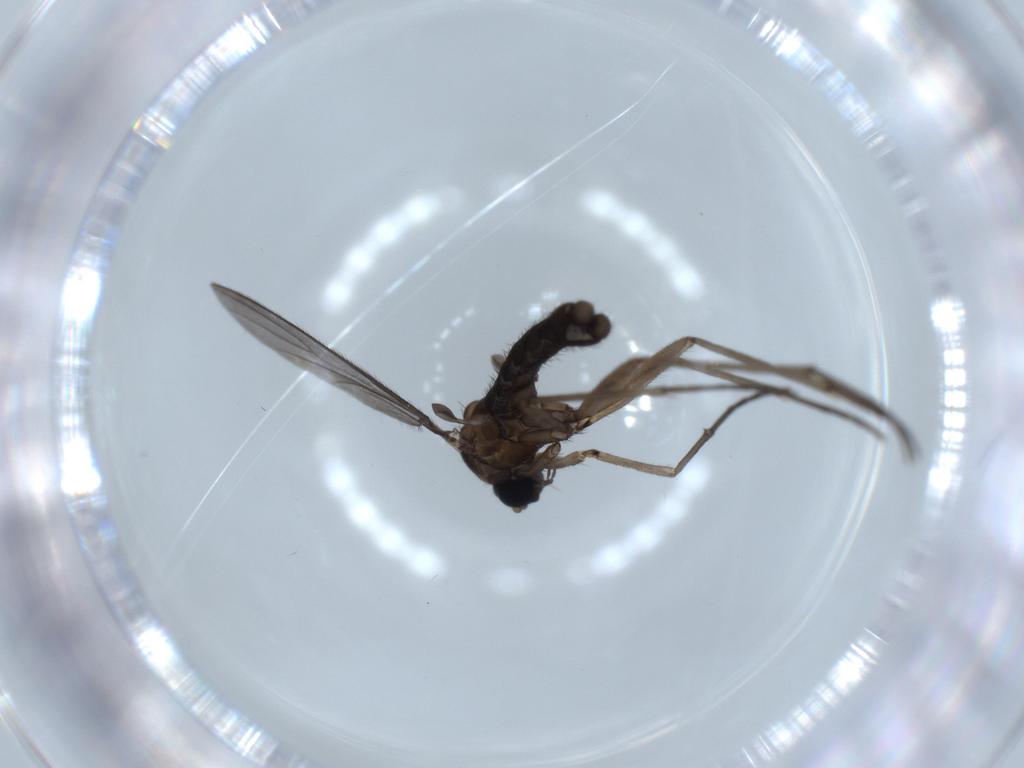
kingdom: Animalia
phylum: Arthropoda
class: Insecta
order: Diptera
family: Sciaridae
